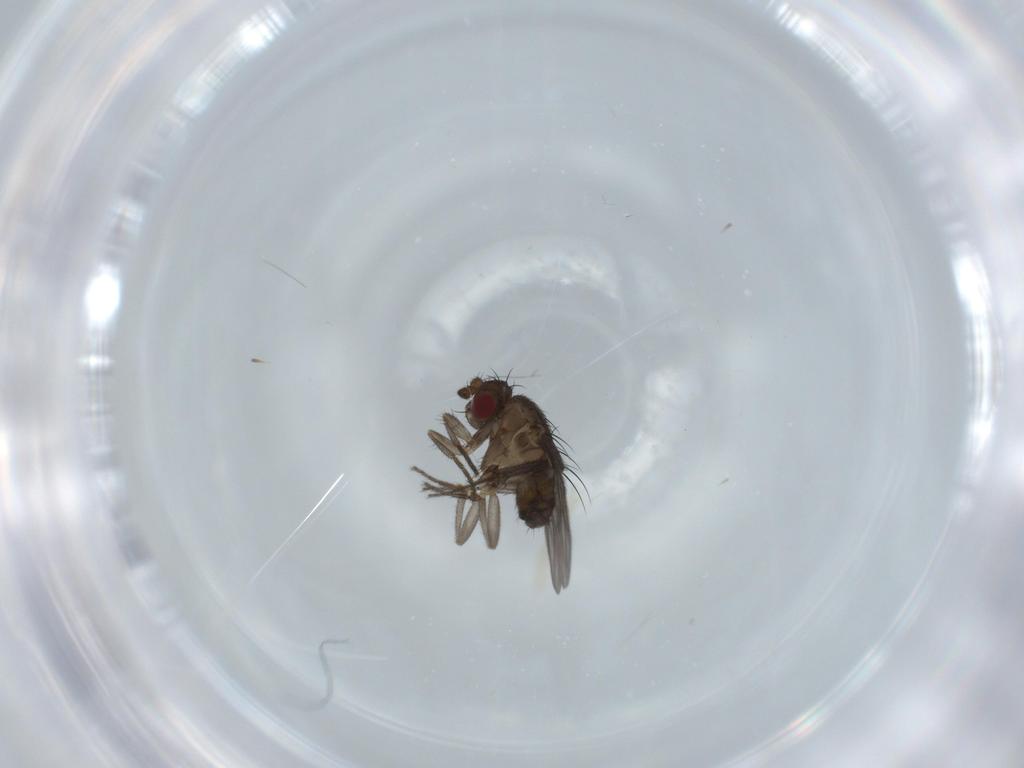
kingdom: Animalia
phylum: Arthropoda
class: Insecta
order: Diptera
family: Sphaeroceridae
